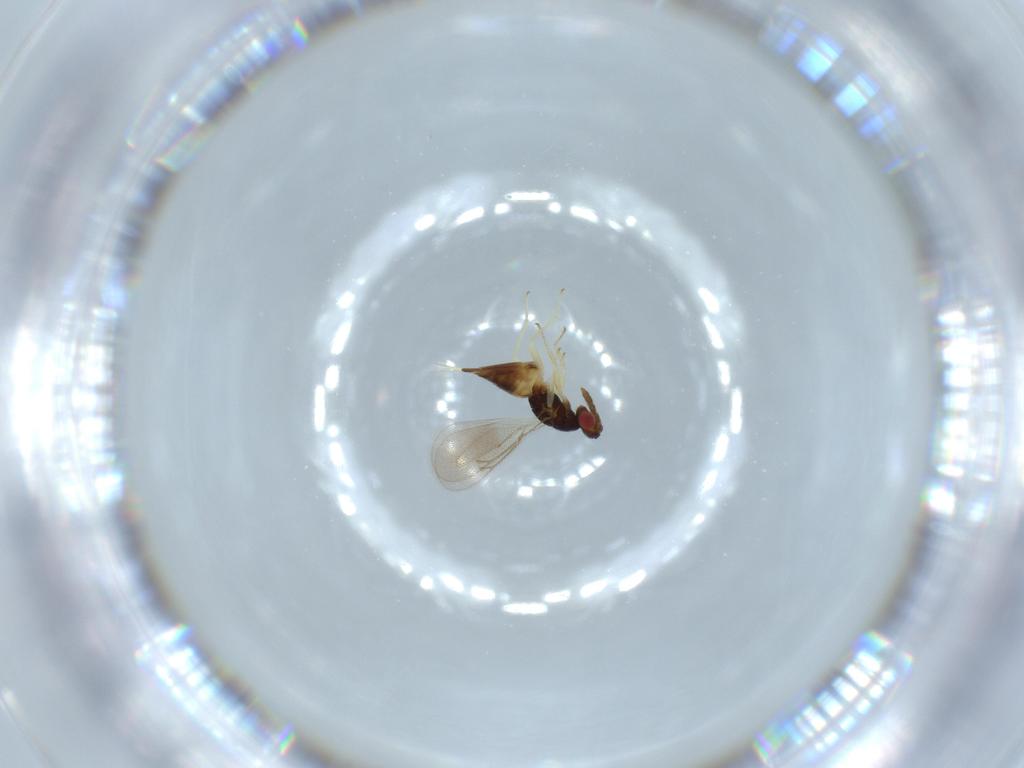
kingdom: Animalia
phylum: Arthropoda
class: Insecta
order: Hymenoptera
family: Eulophidae
